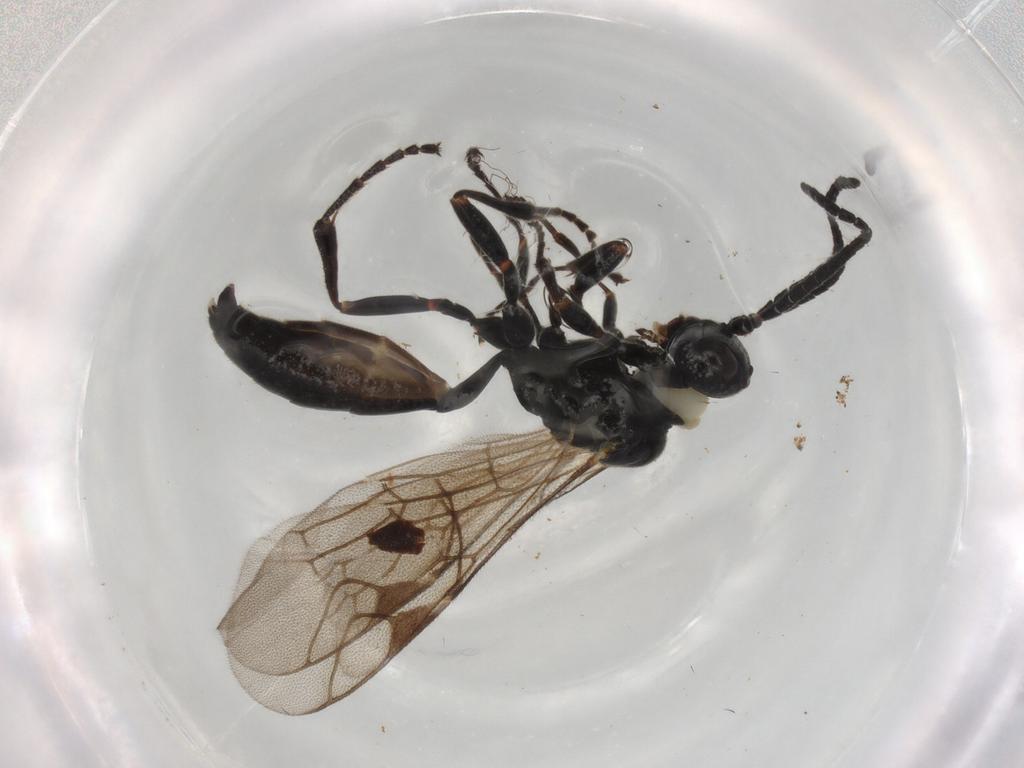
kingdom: Animalia
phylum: Arthropoda
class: Insecta
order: Hymenoptera
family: Ichneumonidae
